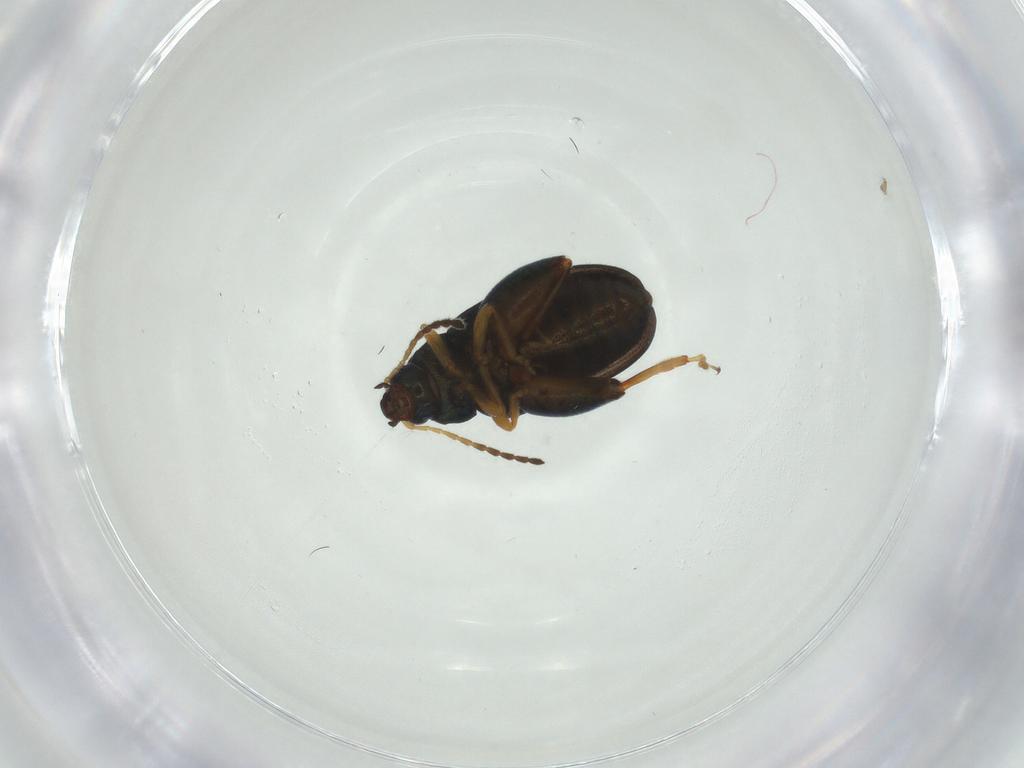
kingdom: Animalia
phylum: Arthropoda
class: Insecta
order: Coleoptera
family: Chrysomelidae
